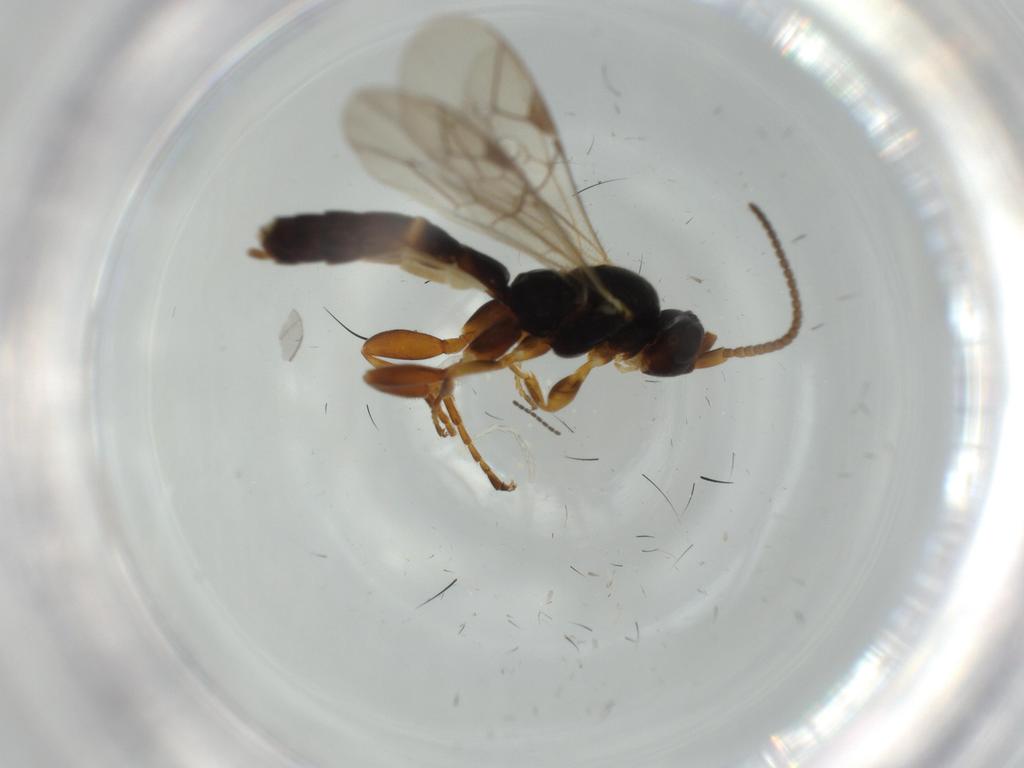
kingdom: Animalia
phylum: Arthropoda
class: Insecta
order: Hymenoptera
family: Ichneumonidae
